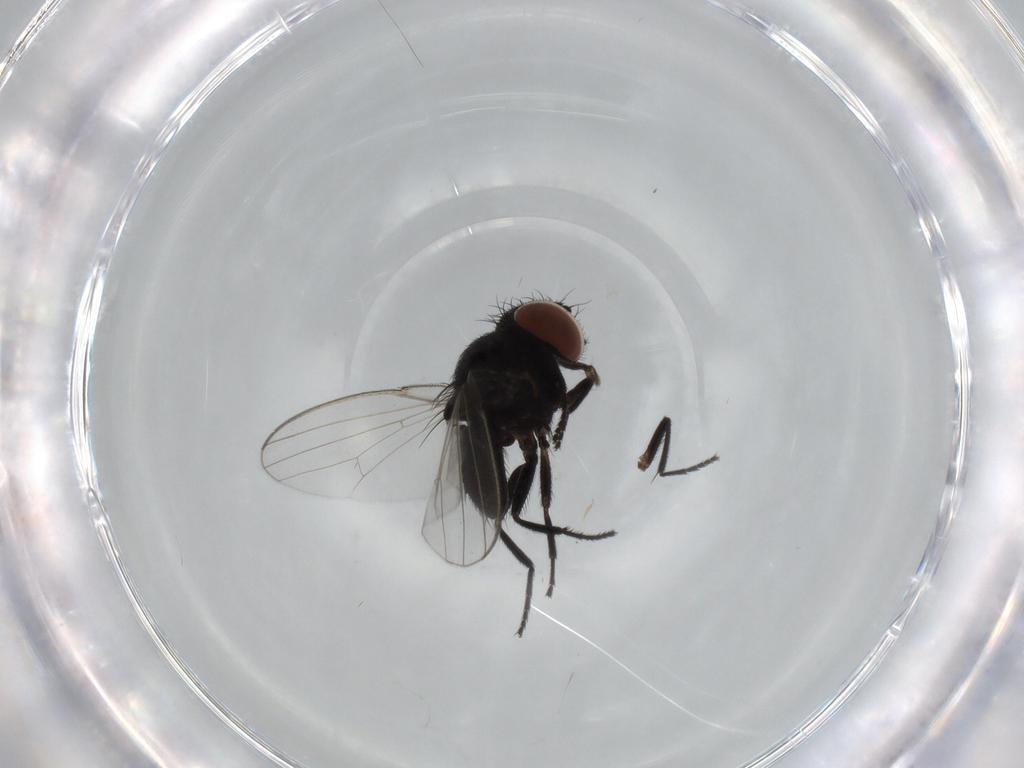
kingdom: Animalia
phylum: Arthropoda
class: Insecta
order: Diptera
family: Milichiidae
